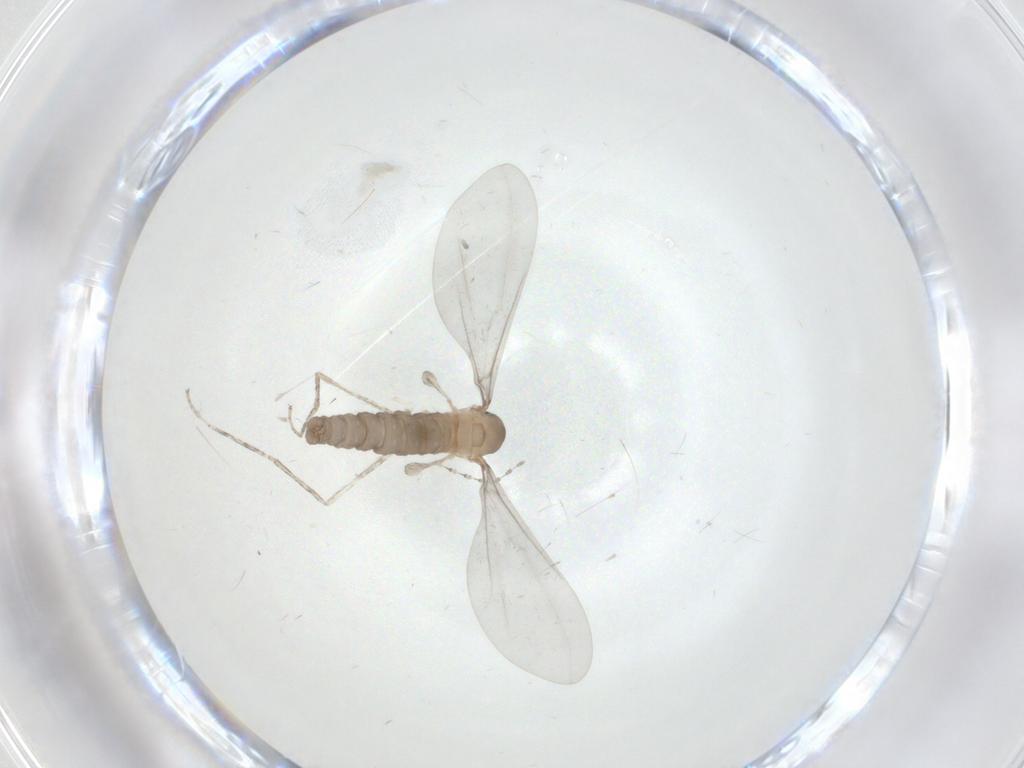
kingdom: Animalia
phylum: Arthropoda
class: Insecta
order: Diptera
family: Cecidomyiidae
